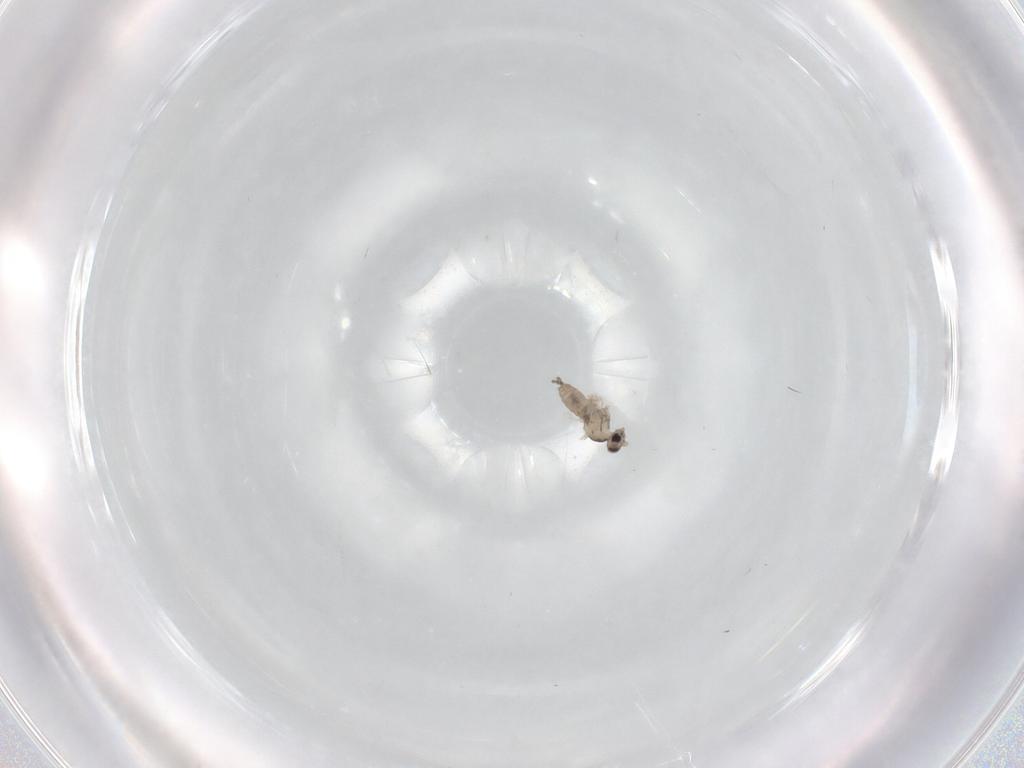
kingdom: Animalia
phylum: Arthropoda
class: Insecta
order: Diptera
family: Cecidomyiidae
